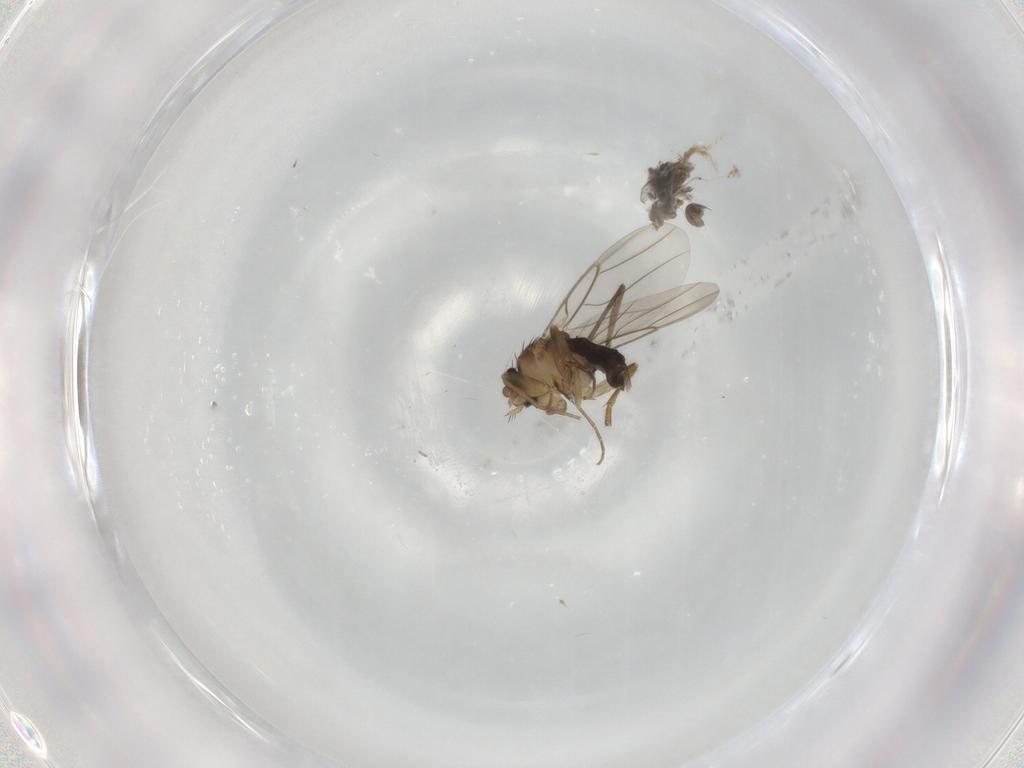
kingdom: Animalia
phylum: Arthropoda
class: Insecta
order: Diptera
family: Phoridae
